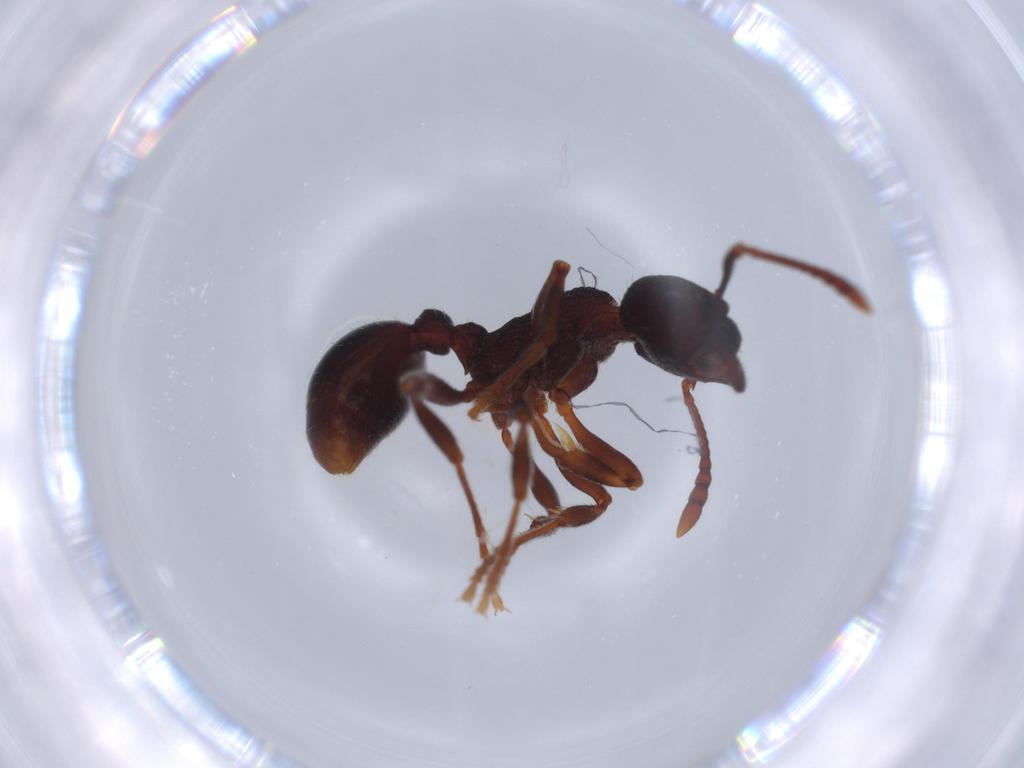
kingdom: Animalia
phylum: Arthropoda
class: Insecta
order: Hymenoptera
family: Formicidae
